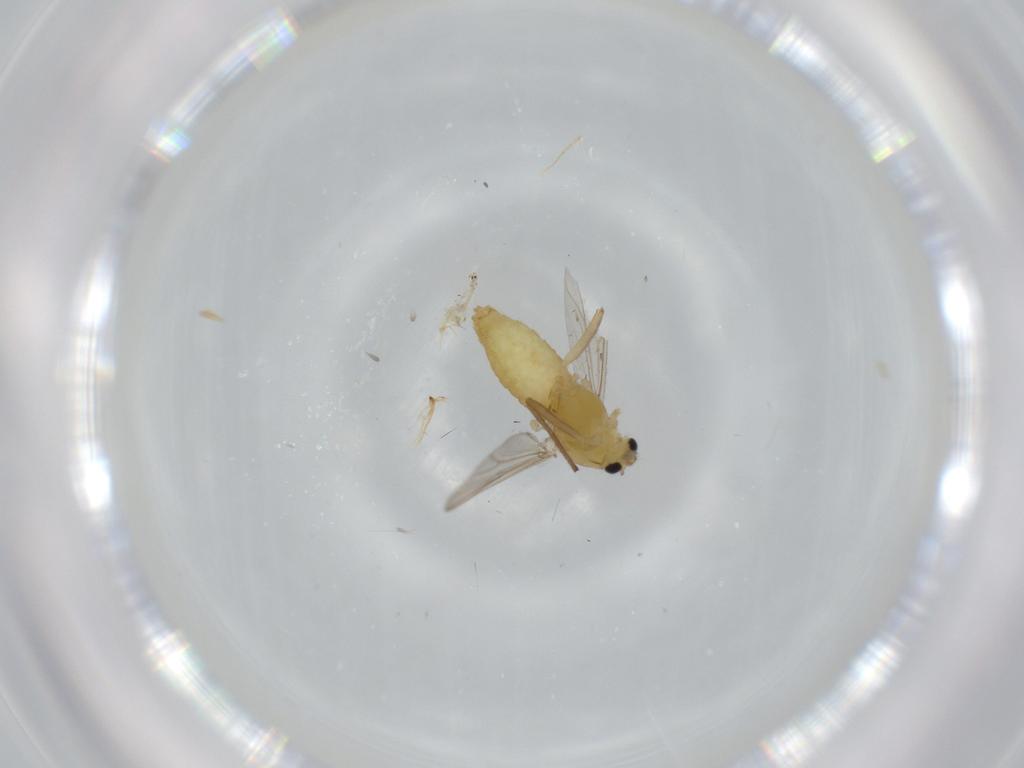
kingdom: Animalia
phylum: Arthropoda
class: Insecta
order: Diptera
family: Chironomidae
